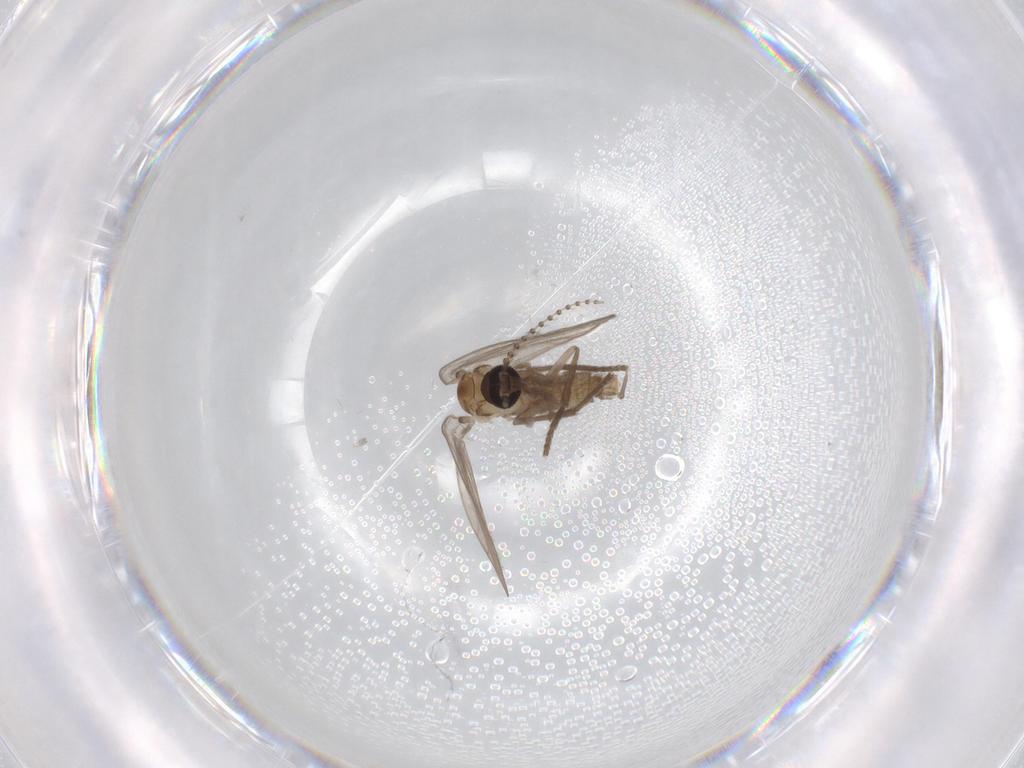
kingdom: Animalia
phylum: Arthropoda
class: Insecta
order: Diptera
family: Psychodidae
